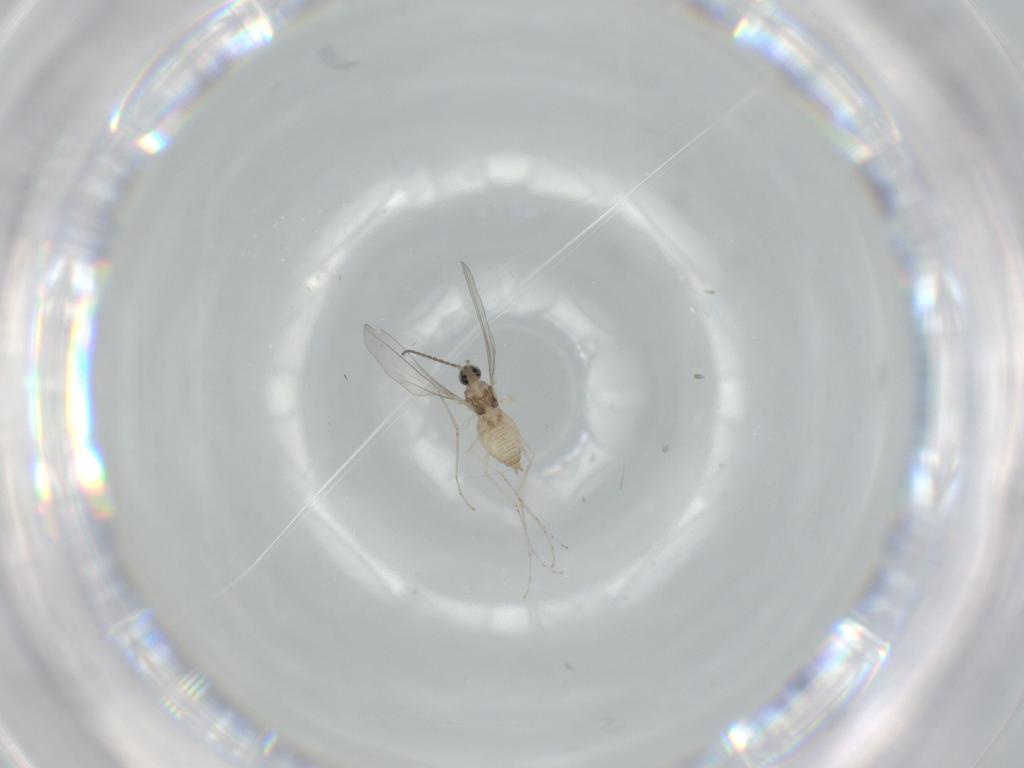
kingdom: Animalia
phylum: Arthropoda
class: Insecta
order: Diptera
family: Cecidomyiidae
